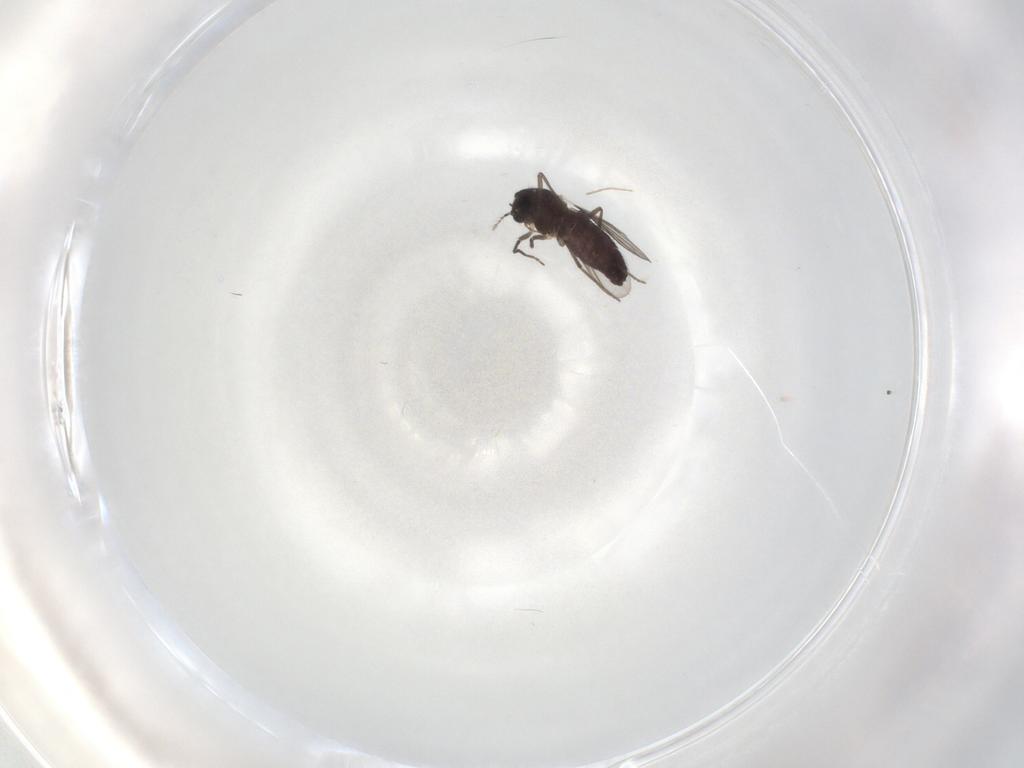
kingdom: Animalia
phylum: Arthropoda
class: Insecta
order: Diptera
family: Chironomidae
